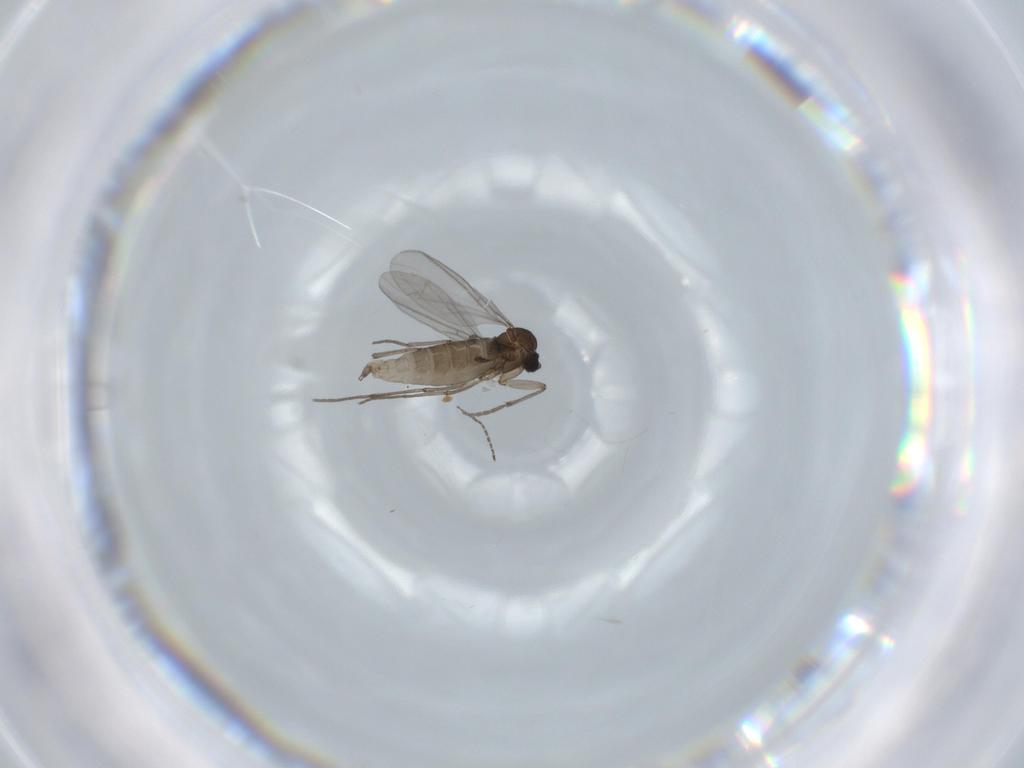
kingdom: Animalia
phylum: Arthropoda
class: Insecta
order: Diptera
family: Sciaridae
